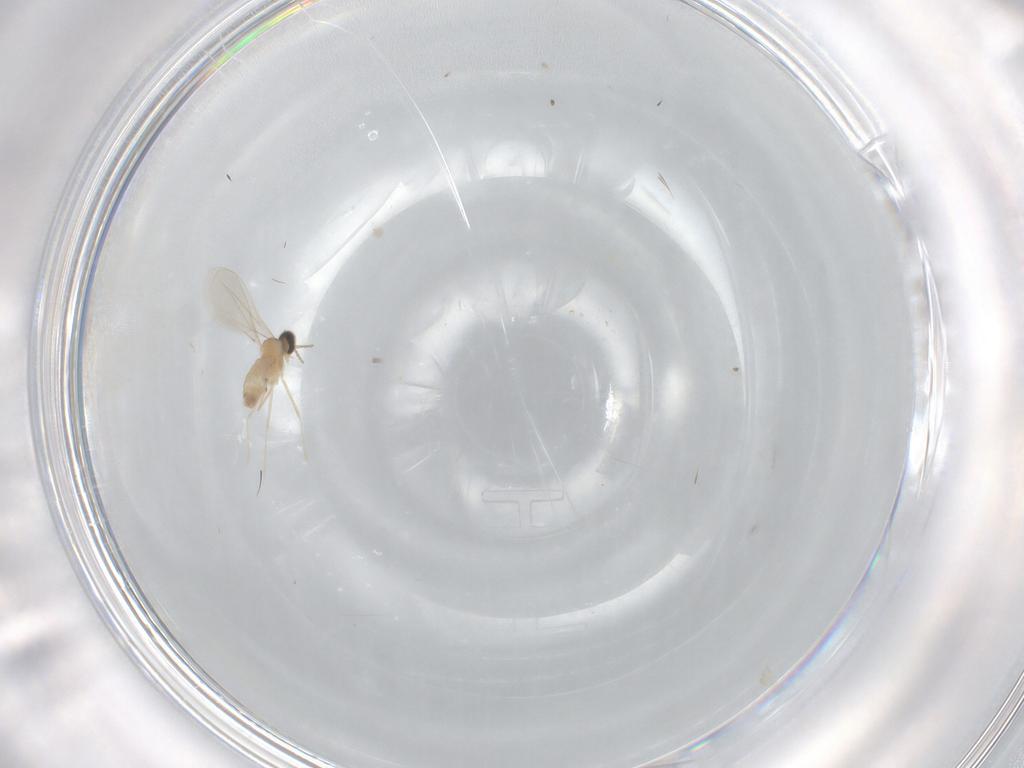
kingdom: Animalia
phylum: Arthropoda
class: Insecta
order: Diptera
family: Cecidomyiidae
